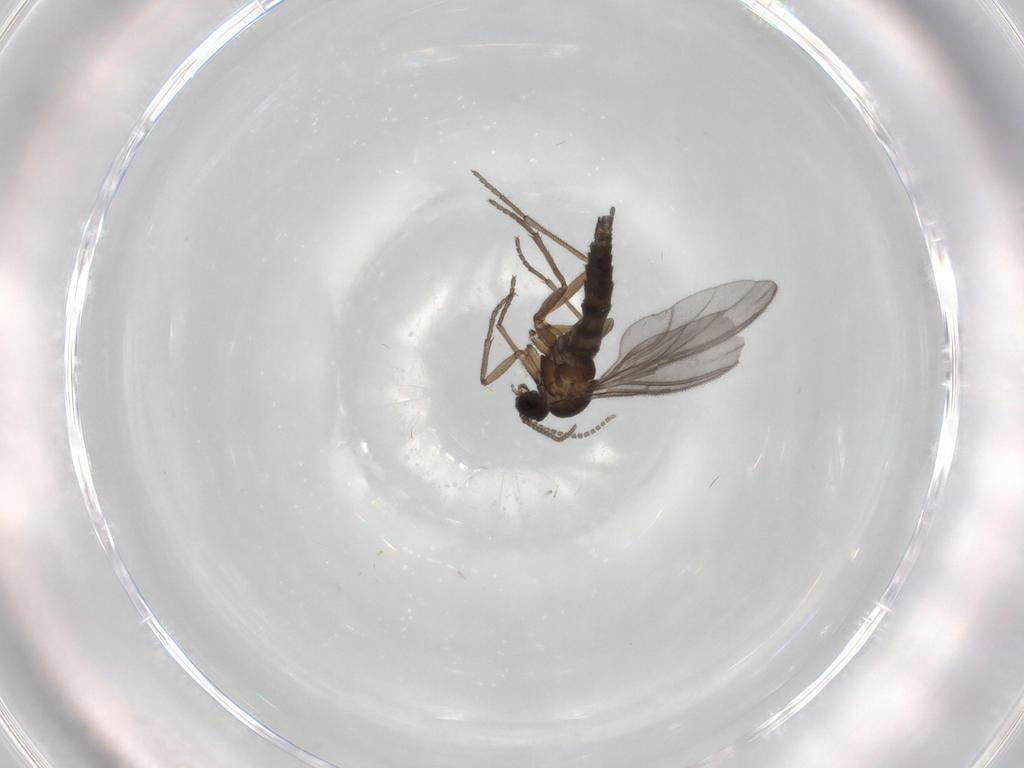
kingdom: Animalia
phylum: Arthropoda
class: Insecta
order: Diptera
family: Sciaridae
